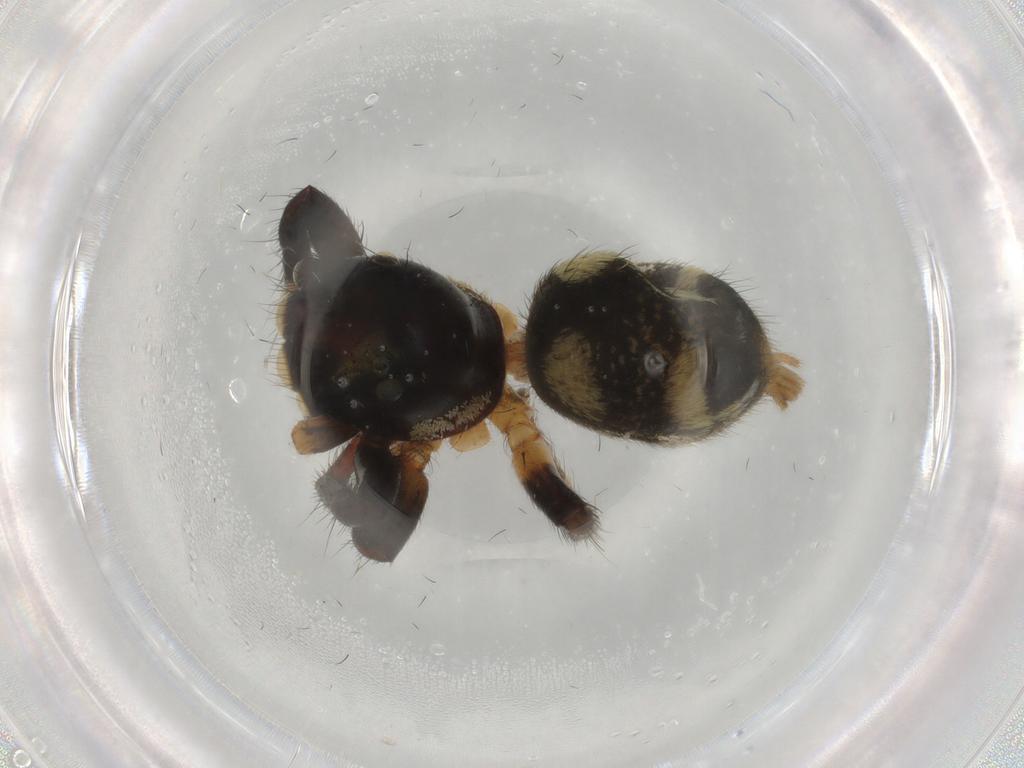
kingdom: Animalia
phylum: Arthropoda
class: Arachnida
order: Araneae
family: Salticidae
